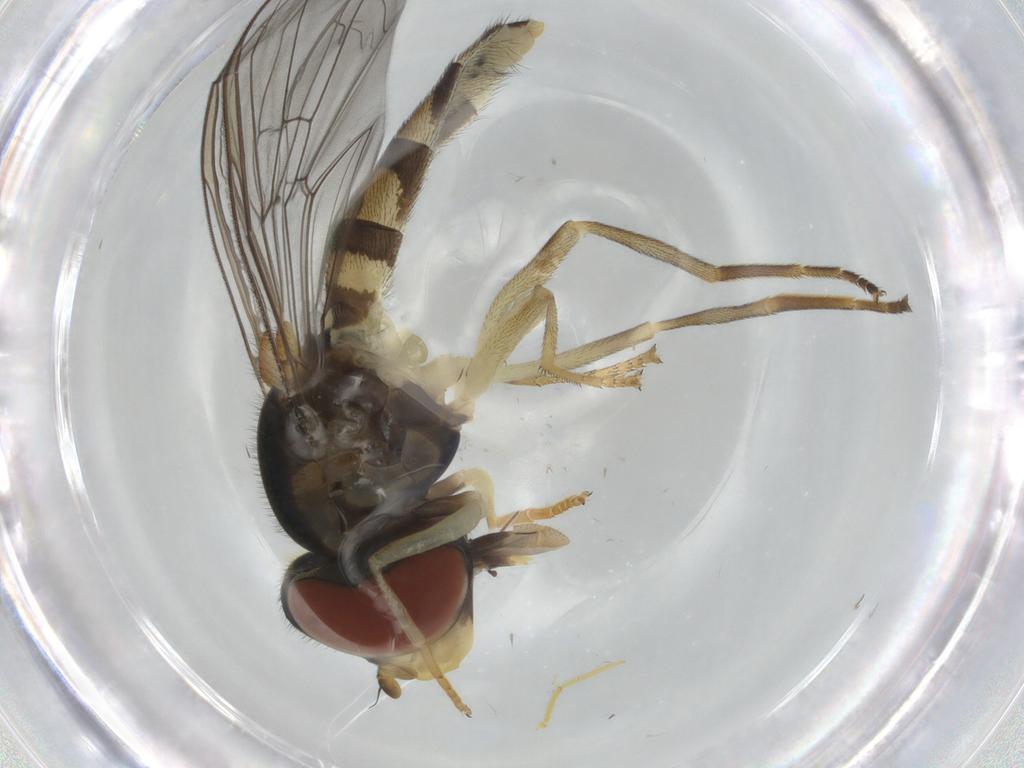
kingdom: Animalia
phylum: Arthropoda
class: Insecta
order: Diptera
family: Syrphidae
